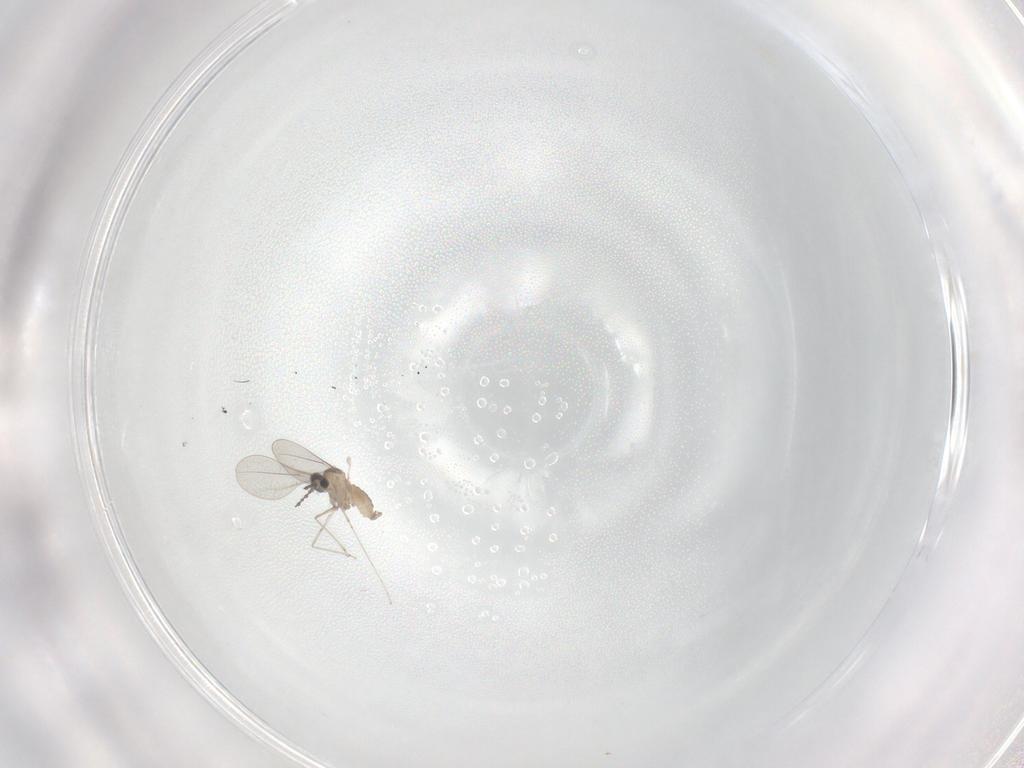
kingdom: Animalia
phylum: Arthropoda
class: Insecta
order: Diptera
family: Cecidomyiidae
